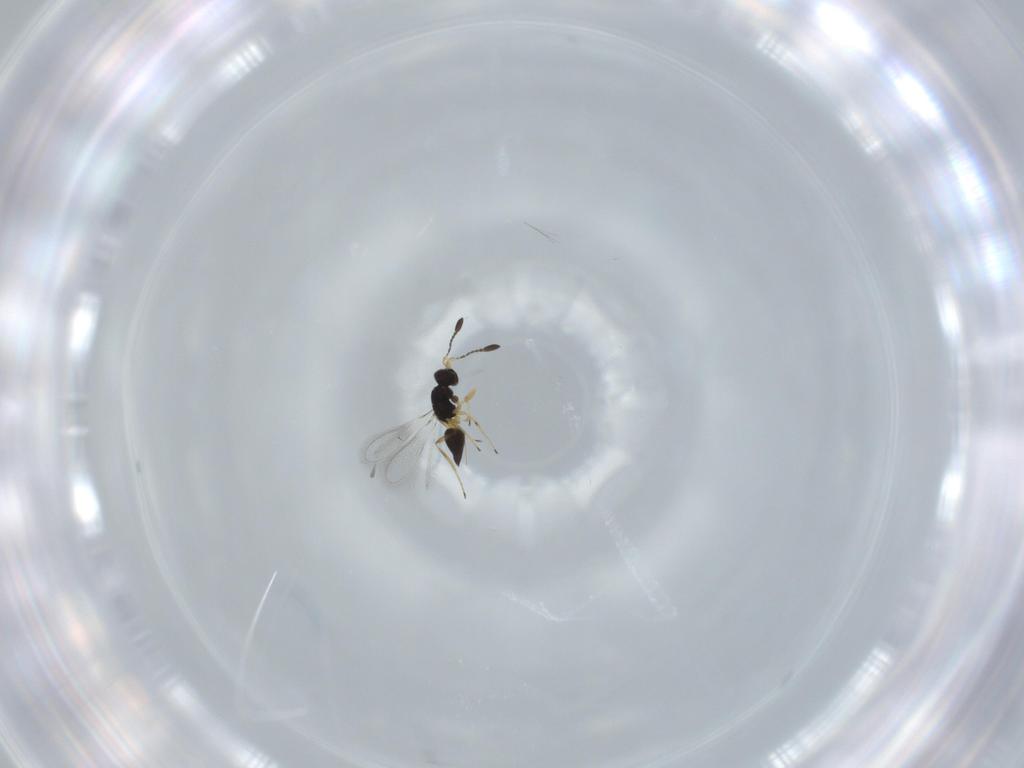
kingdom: Animalia
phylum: Arthropoda
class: Insecta
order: Hymenoptera
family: Mymaridae
